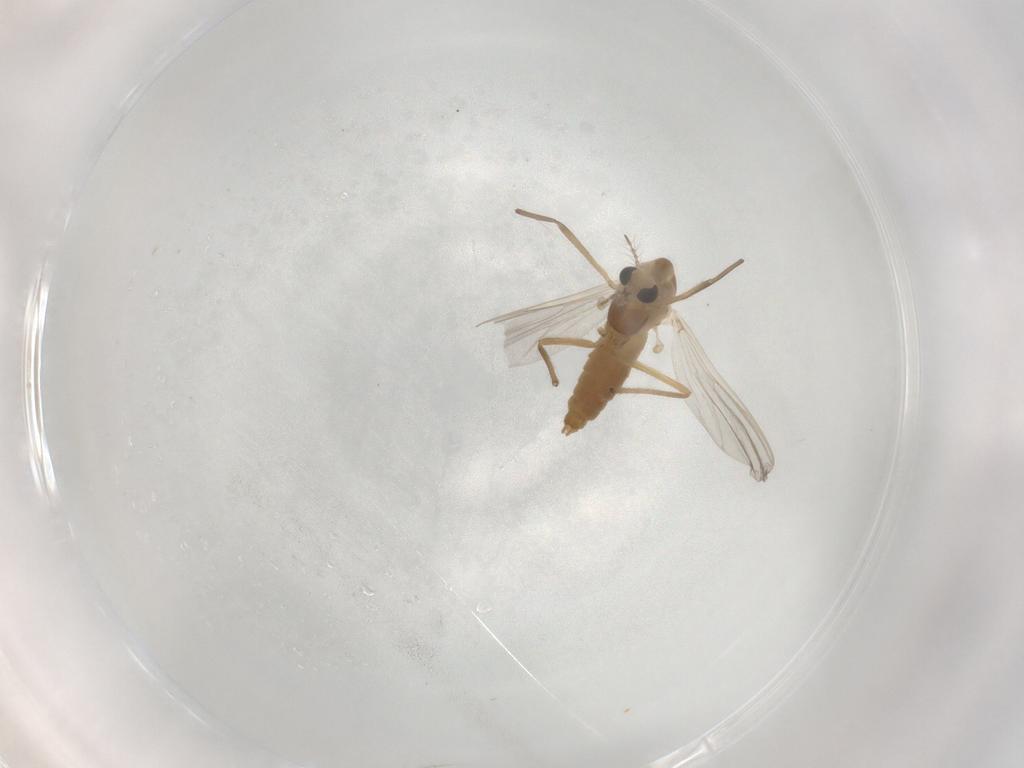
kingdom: Animalia
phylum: Arthropoda
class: Insecta
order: Diptera
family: Chironomidae
